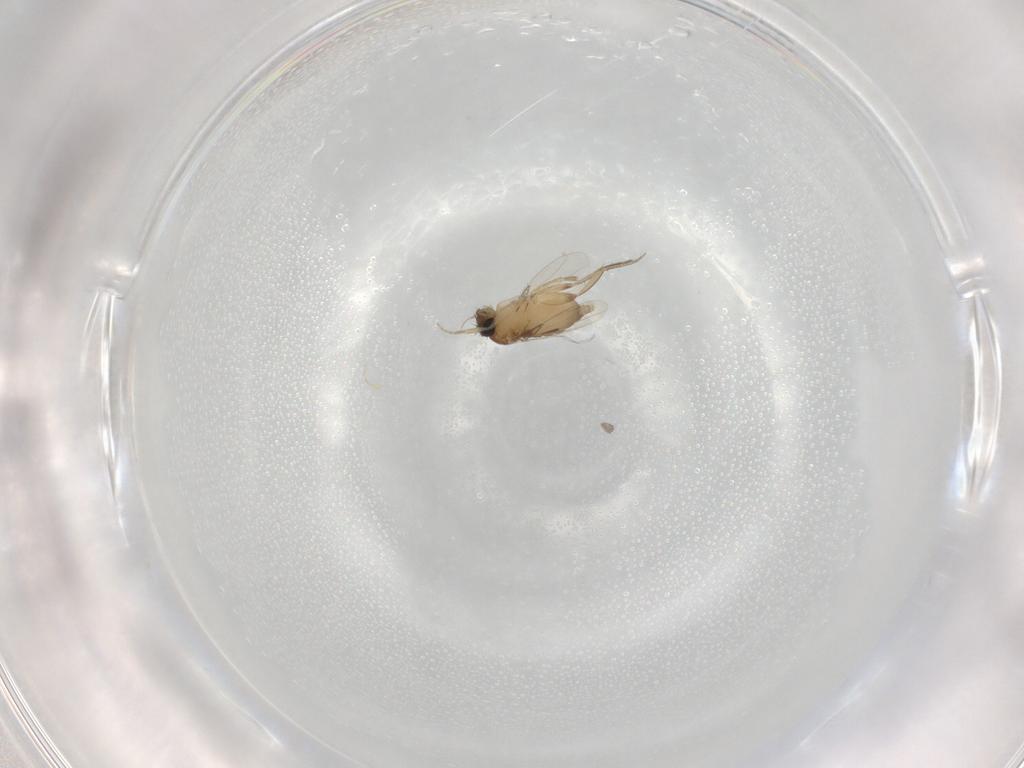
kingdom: Animalia
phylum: Arthropoda
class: Insecta
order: Diptera
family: Phoridae
